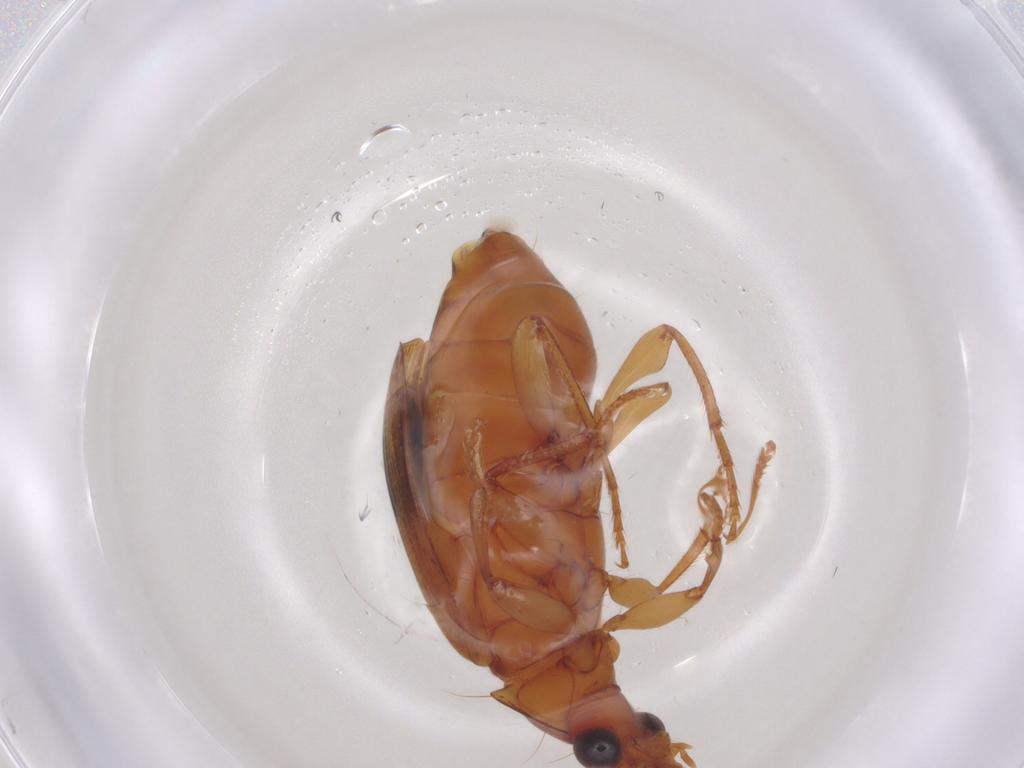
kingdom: Animalia
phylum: Arthropoda
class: Insecta
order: Coleoptera
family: Carabidae
